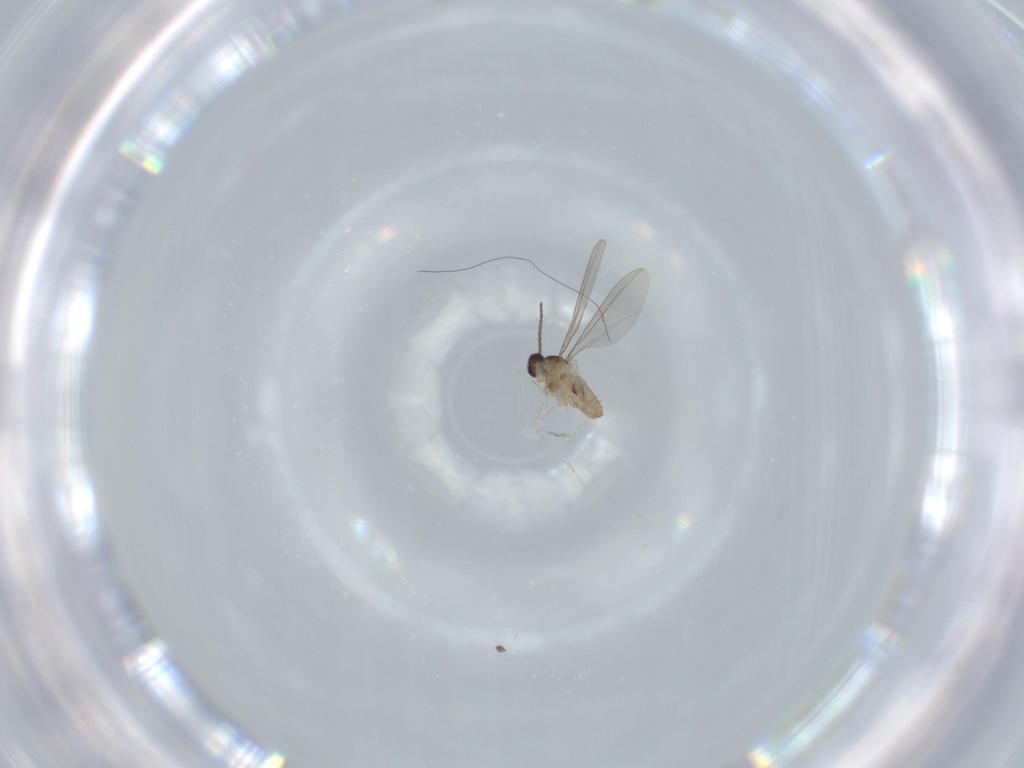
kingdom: Animalia
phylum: Arthropoda
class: Insecta
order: Diptera
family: Cecidomyiidae
